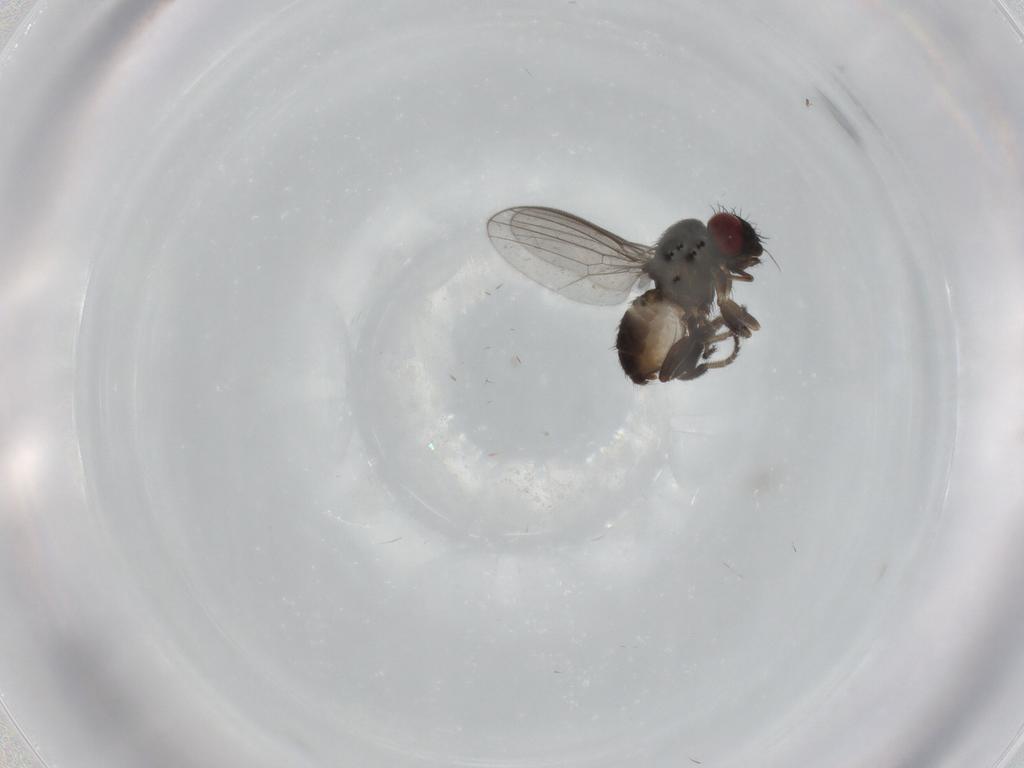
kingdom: Animalia
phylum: Arthropoda
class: Insecta
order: Diptera
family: Milichiidae
